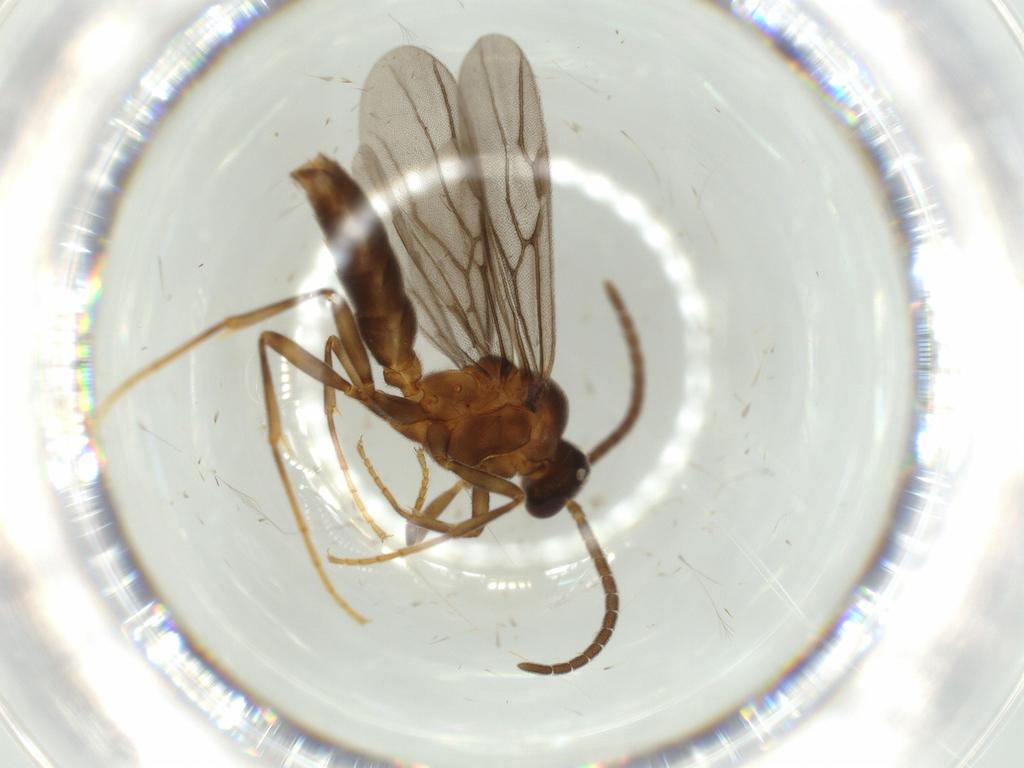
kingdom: Animalia
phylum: Arthropoda
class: Insecta
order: Hymenoptera
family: Formicidae
